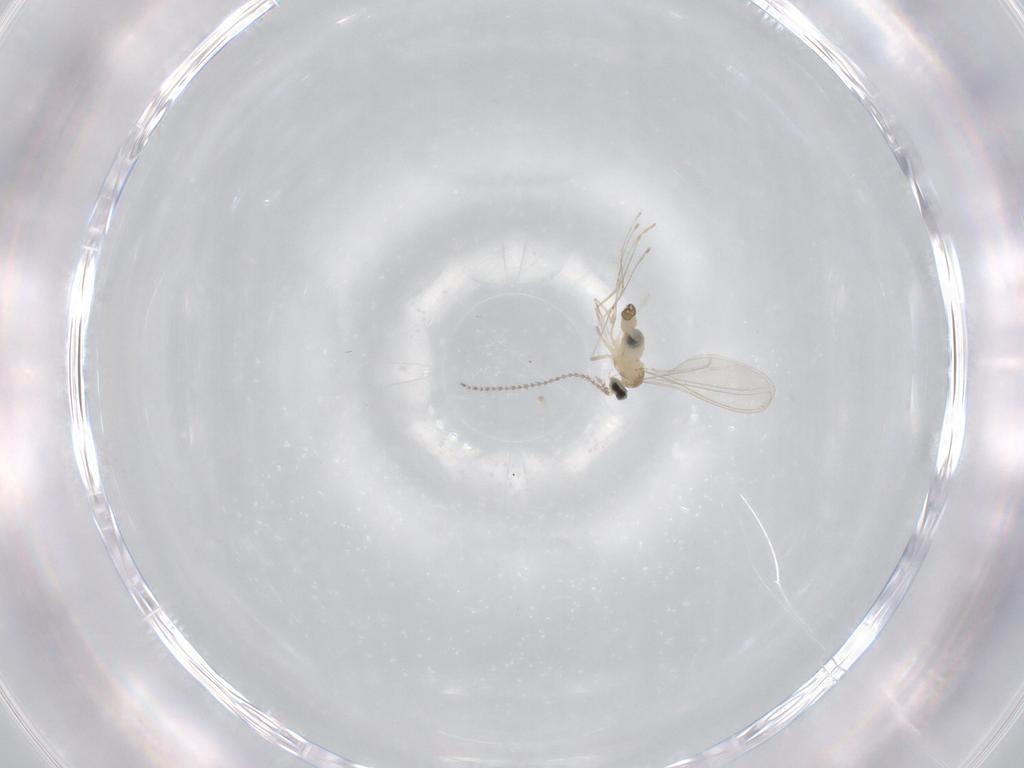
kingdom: Animalia
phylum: Arthropoda
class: Insecta
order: Diptera
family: Cecidomyiidae
